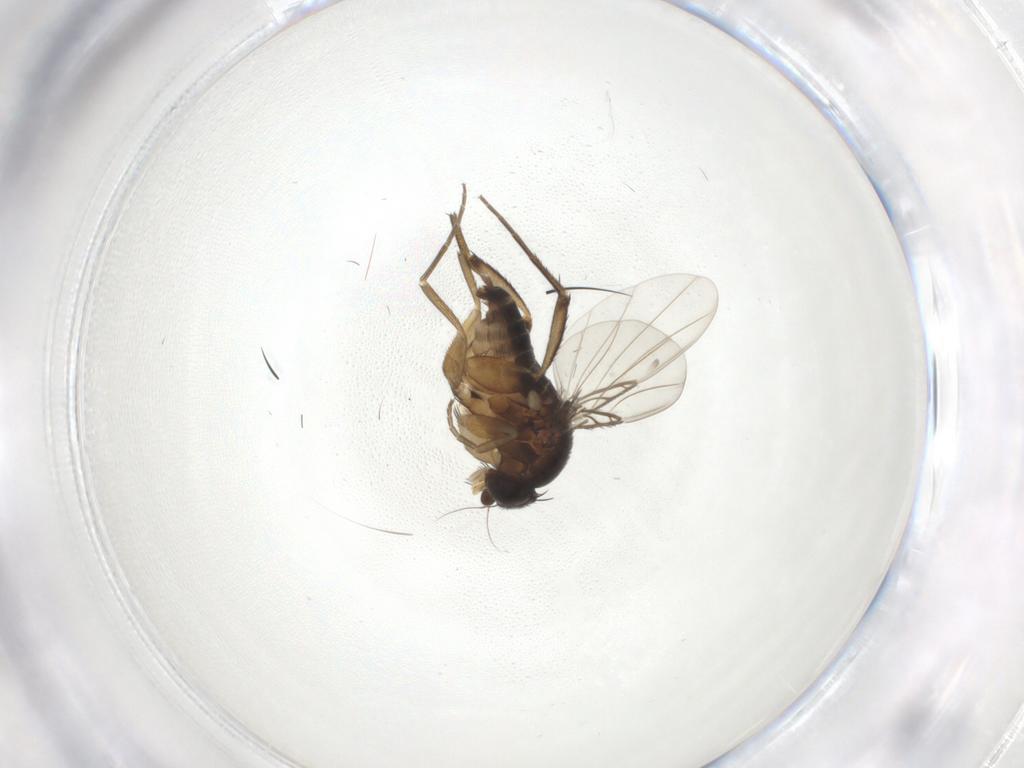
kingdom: Animalia
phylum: Arthropoda
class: Insecta
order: Diptera
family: Phoridae
